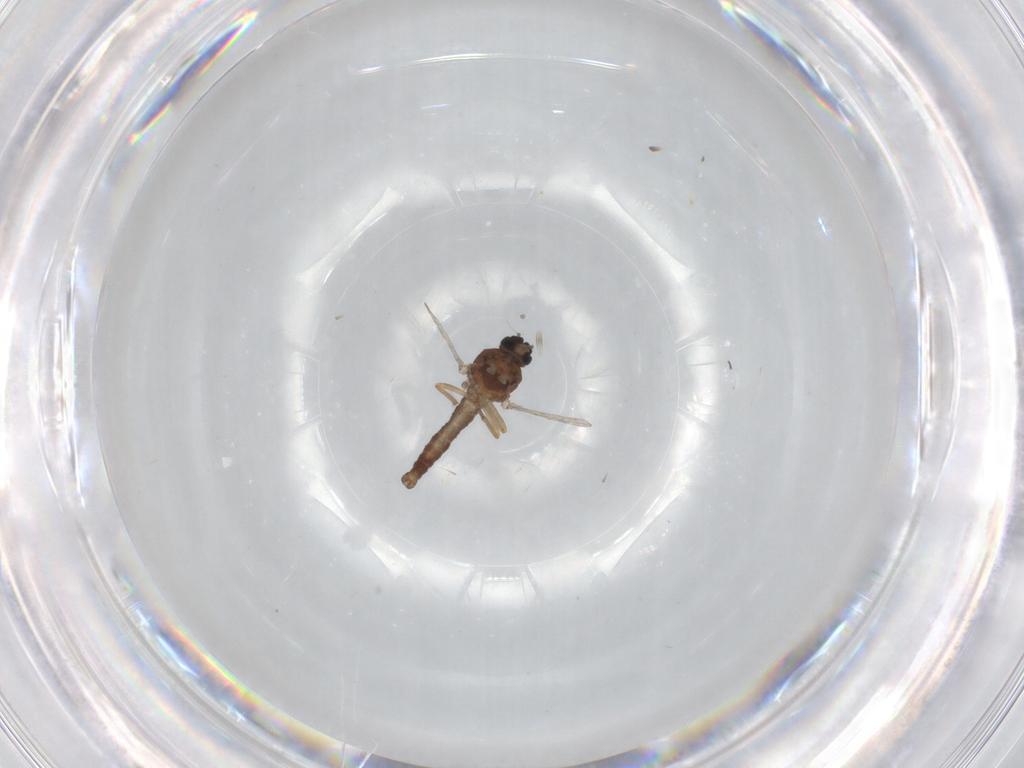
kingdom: Animalia
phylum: Arthropoda
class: Insecta
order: Diptera
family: Ceratopogonidae
